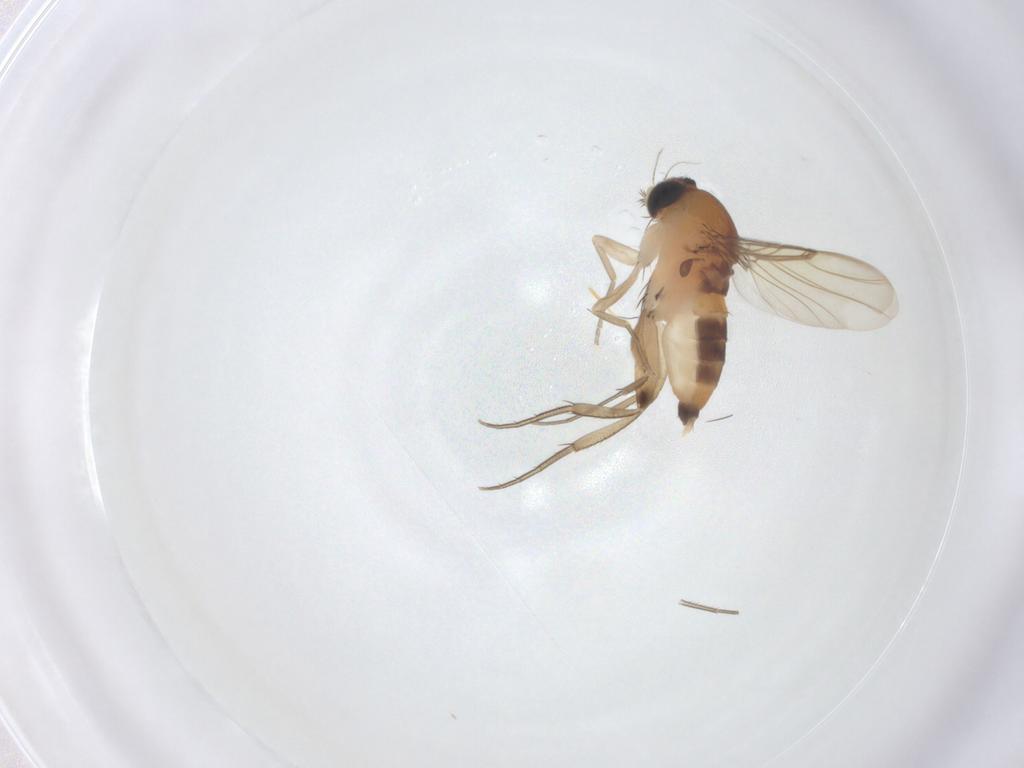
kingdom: Animalia
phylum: Arthropoda
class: Insecta
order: Diptera
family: Phoridae
